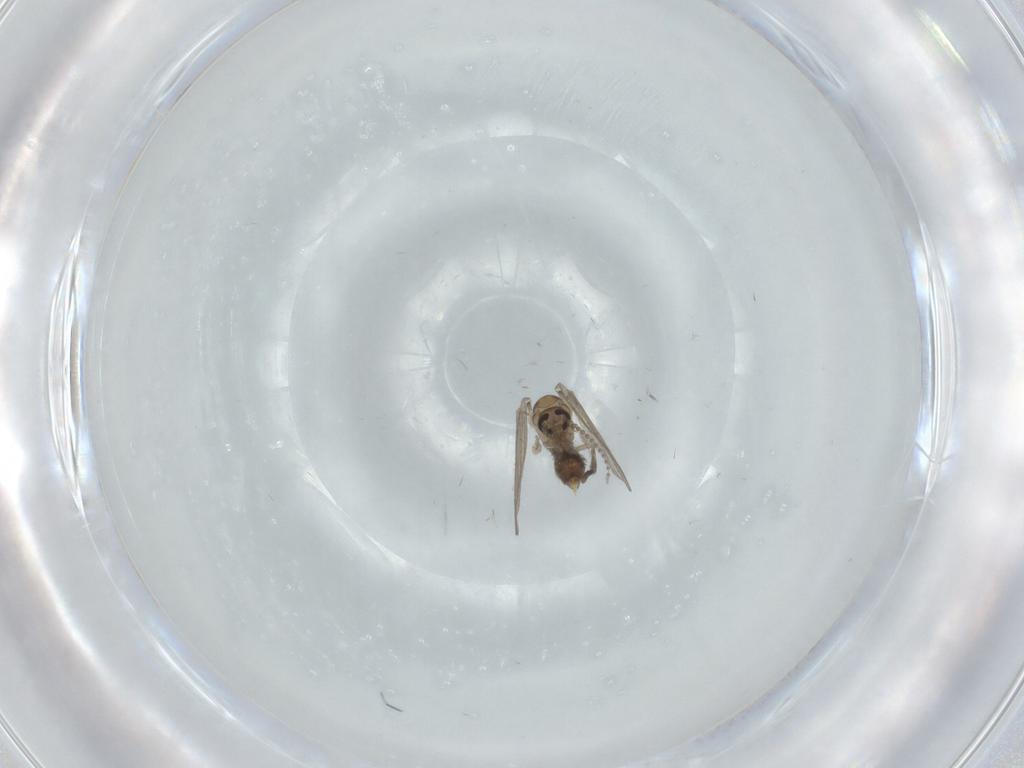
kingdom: Animalia
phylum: Arthropoda
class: Insecta
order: Diptera
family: Psychodidae
